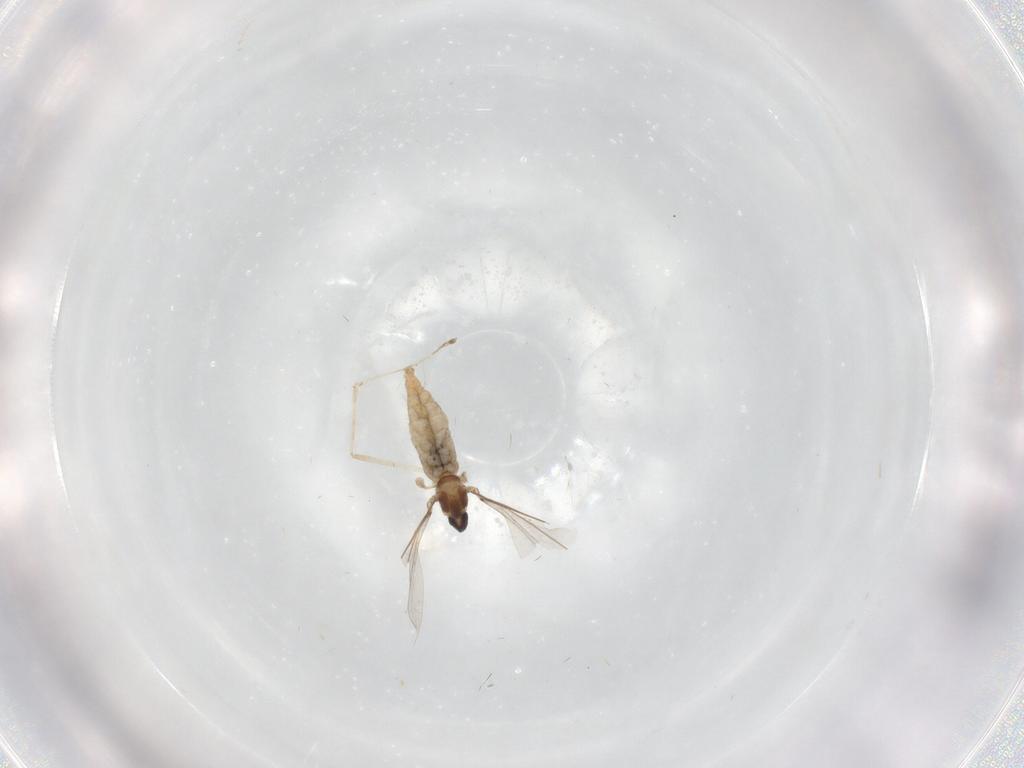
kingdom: Animalia
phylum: Arthropoda
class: Insecta
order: Diptera
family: Cecidomyiidae
